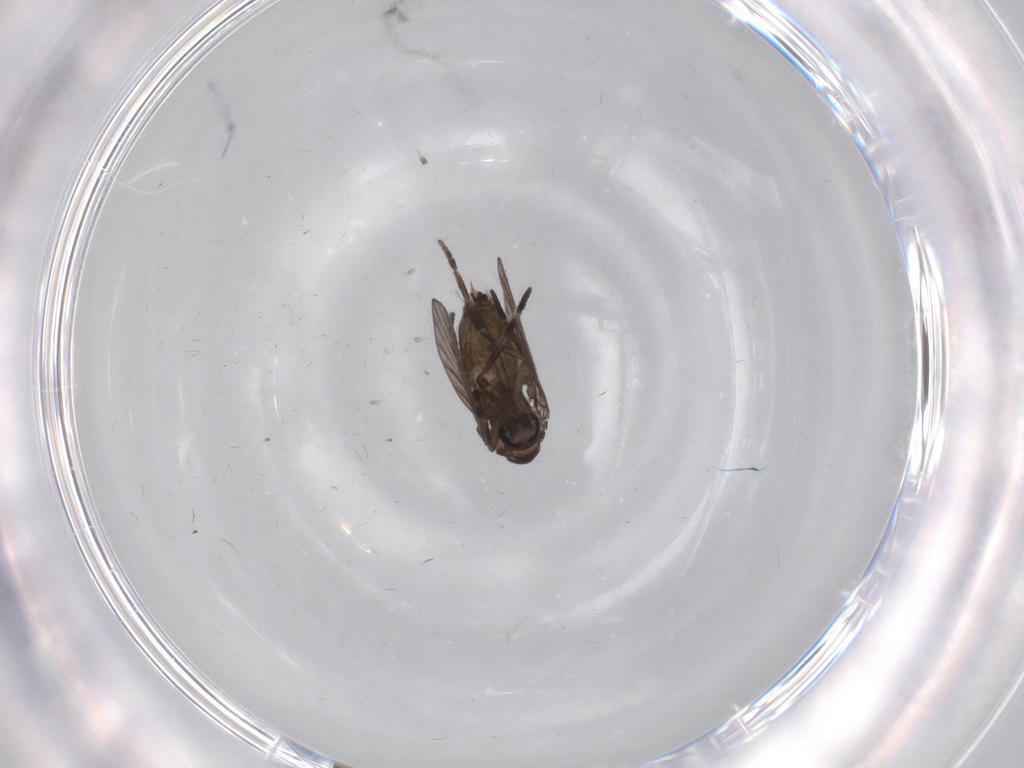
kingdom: Animalia
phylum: Arthropoda
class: Insecta
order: Diptera
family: Psychodidae
